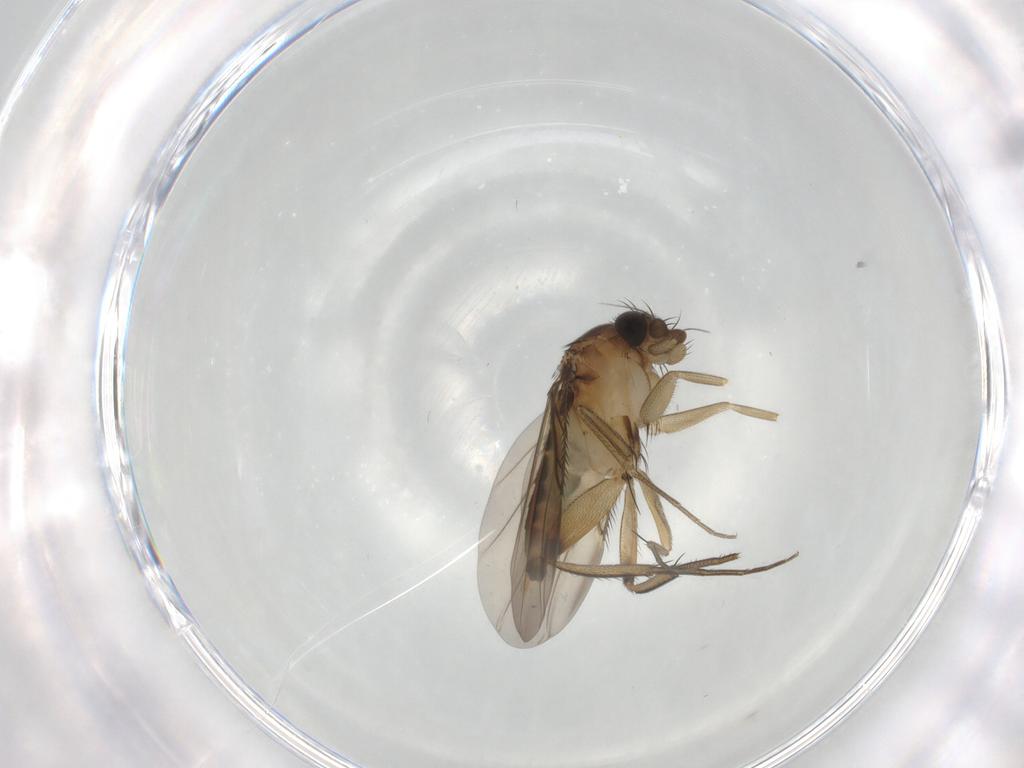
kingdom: Animalia
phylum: Arthropoda
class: Insecta
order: Diptera
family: Phoridae
